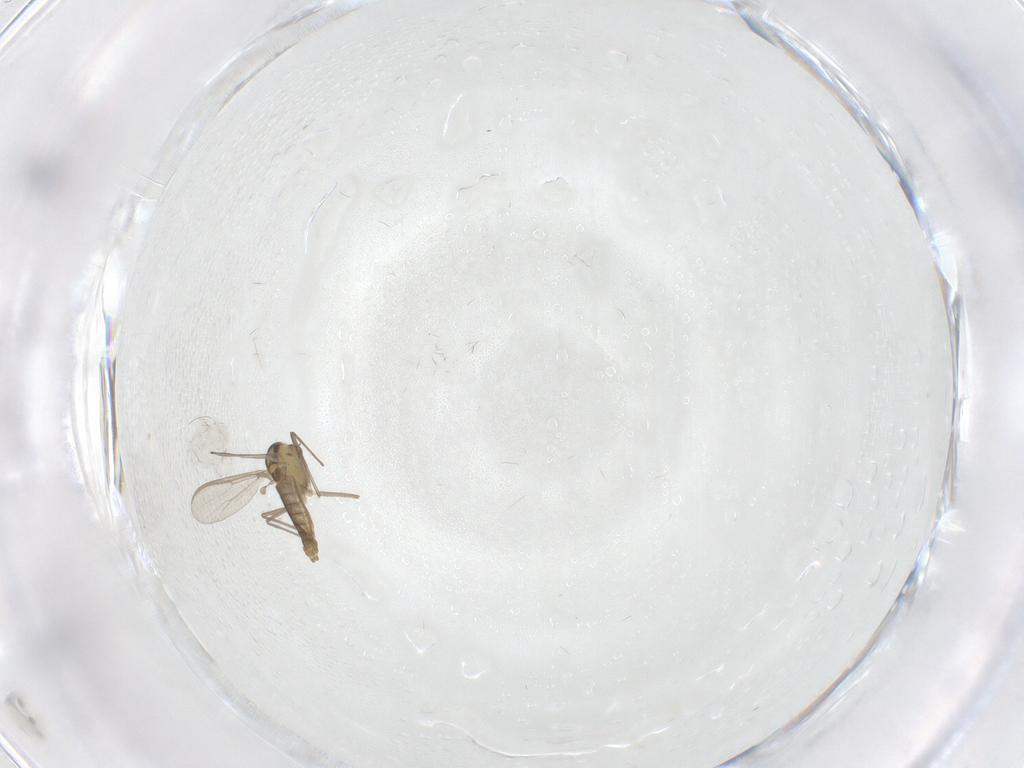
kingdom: Animalia
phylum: Arthropoda
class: Insecta
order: Diptera
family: Chironomidae
